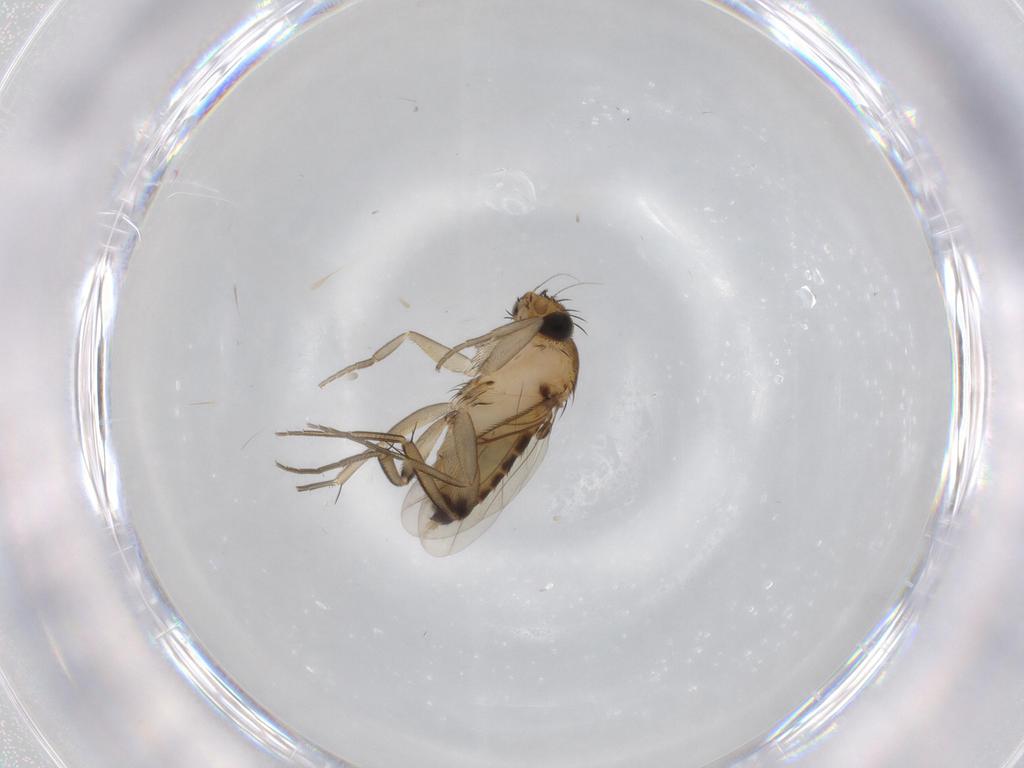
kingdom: Animalia
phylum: Arthropoda
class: Insecta
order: Diptera
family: Phoridae
